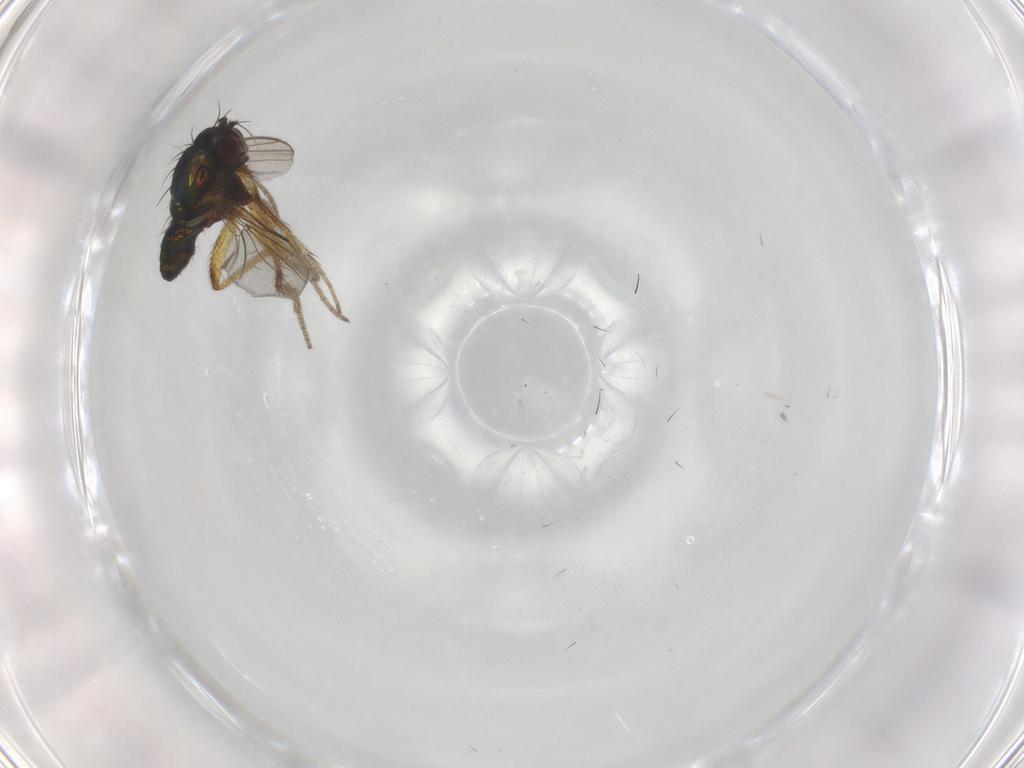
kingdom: Animalia
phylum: Arthropoda
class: Insecta
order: Diptera
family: Dolichopodidae
